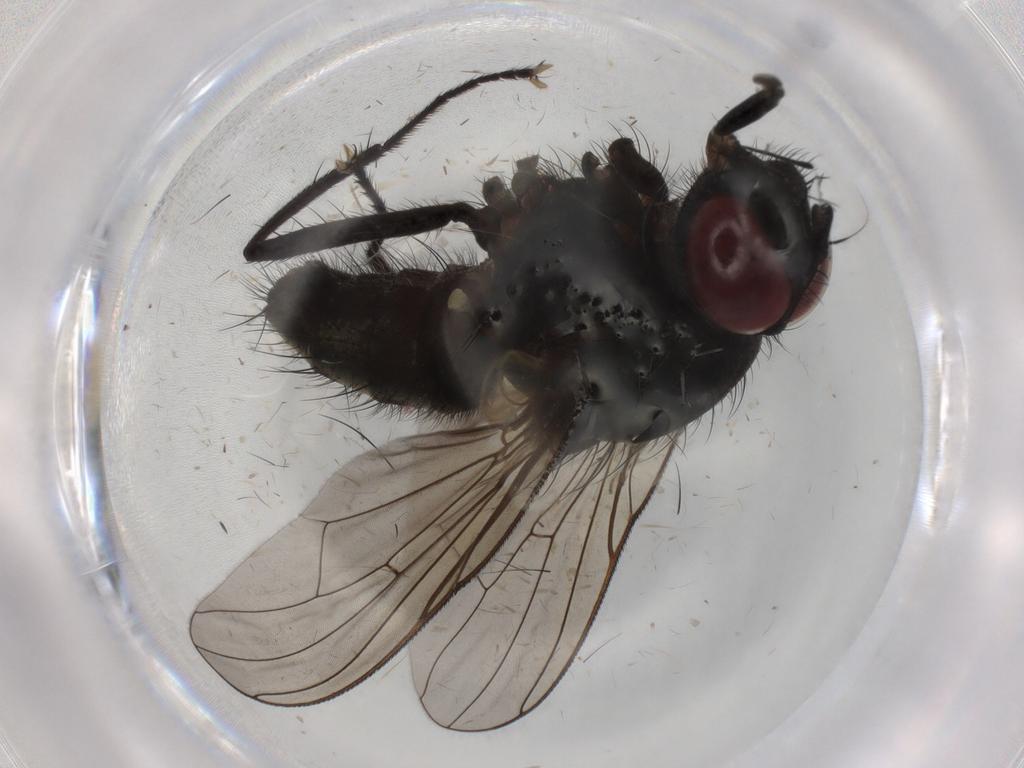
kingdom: Animalia
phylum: Arthropoda
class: Insecta
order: Diptera
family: Muscidae
